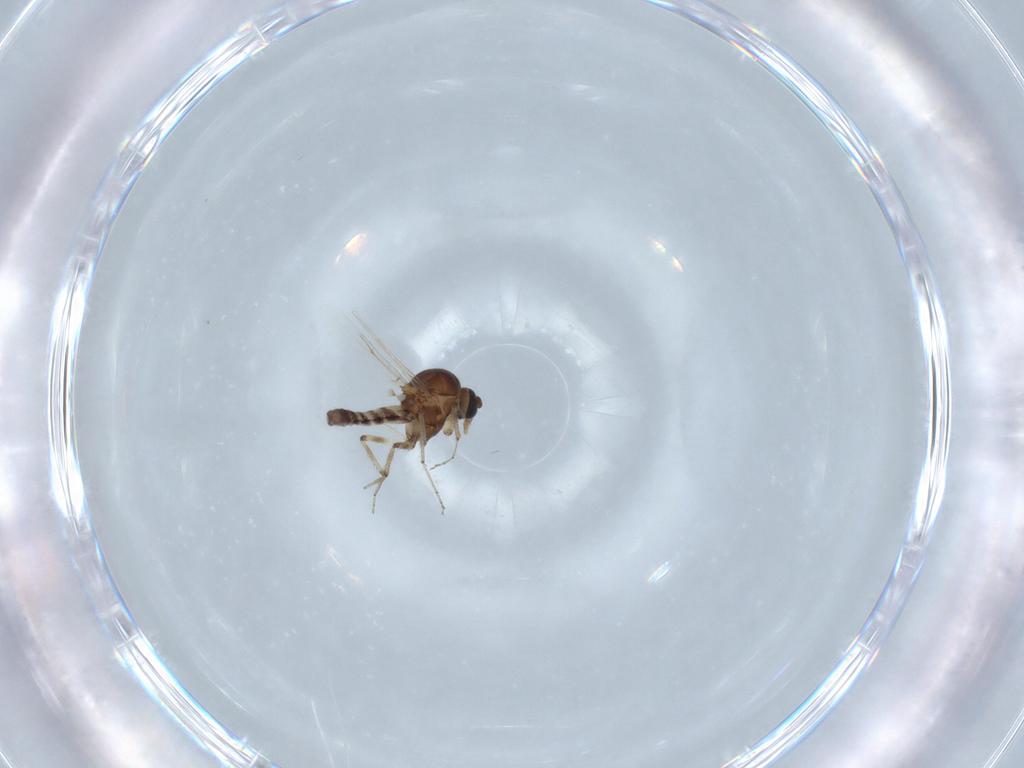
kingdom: Animalia
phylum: Arthropoda
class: Insecta
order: Diptera
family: Ceratopogonidae
